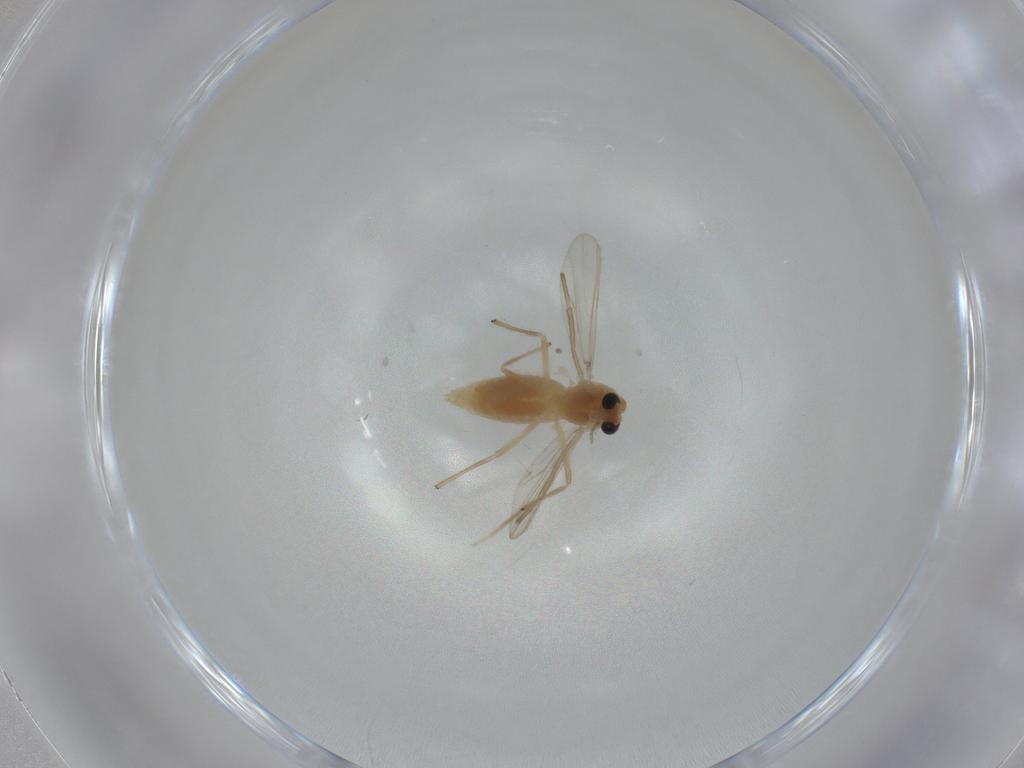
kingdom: Animalia
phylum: Arthropoda
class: Insecta
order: Diptera
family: Chironomidae
